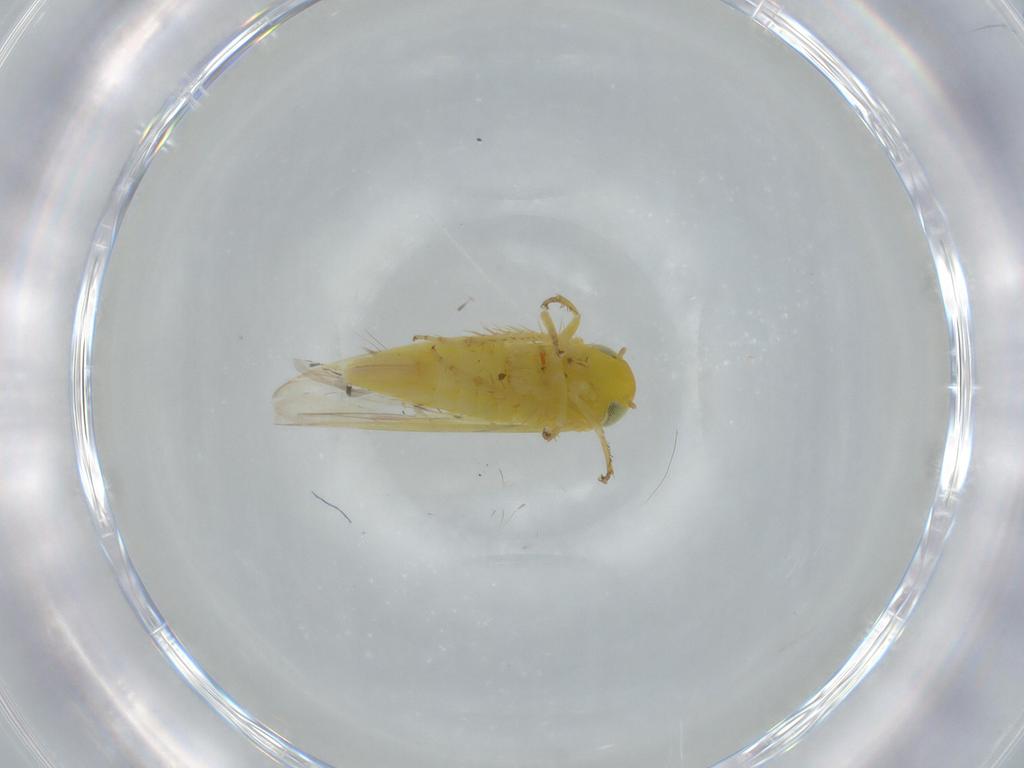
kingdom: Animalia
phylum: Arthropoda
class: Insecta
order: Hemiptera
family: Cicadellidae
